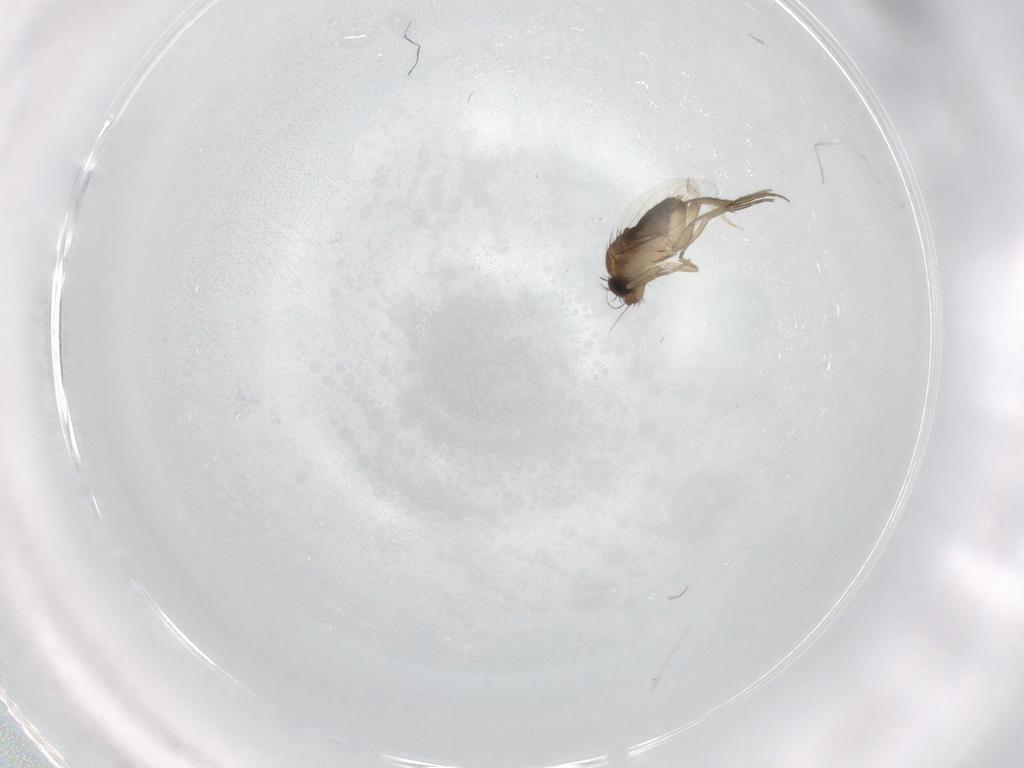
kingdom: Animalia
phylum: Arthropoda
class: Insecta
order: Diptera
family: Phoridae
